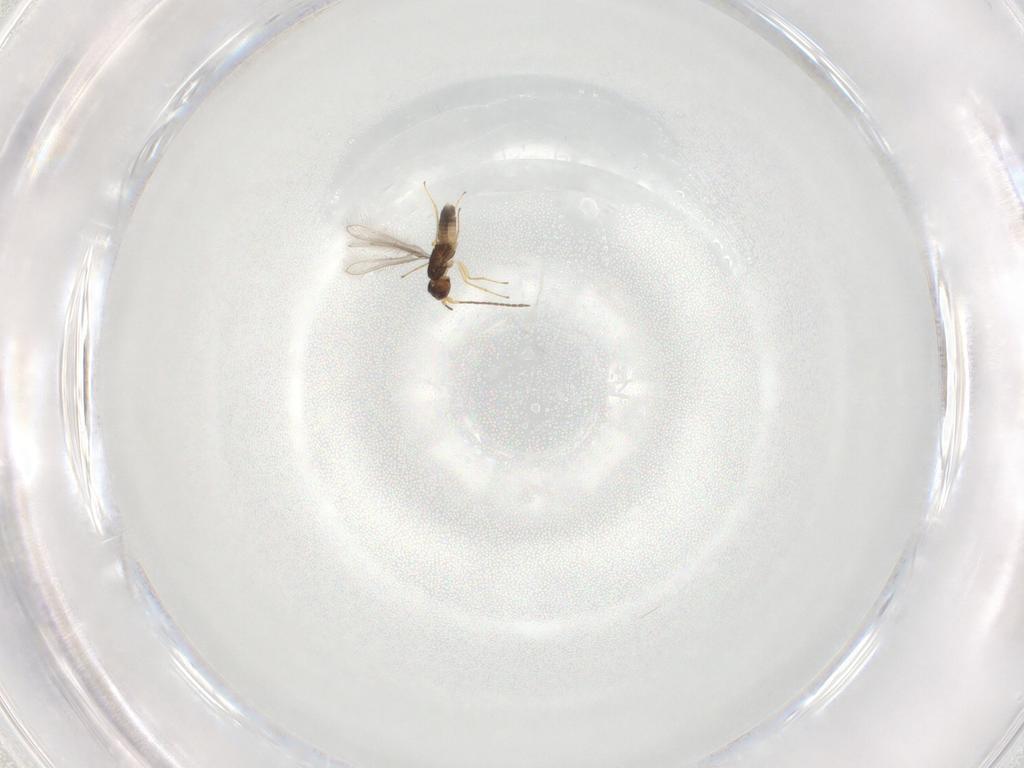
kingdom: Animalia
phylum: Arthropoda
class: Insecta
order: Hymenoptera
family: Mymaridae
